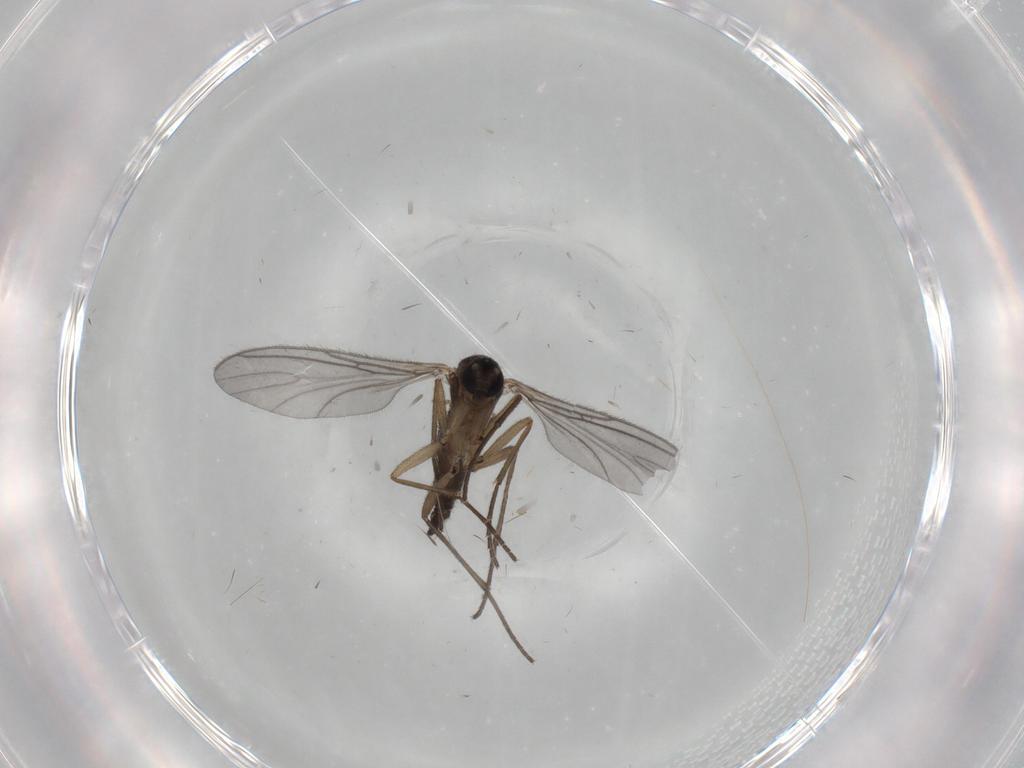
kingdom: Animalia
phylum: Arthropoda
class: Insecta
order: Diptera
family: Sciaridae
